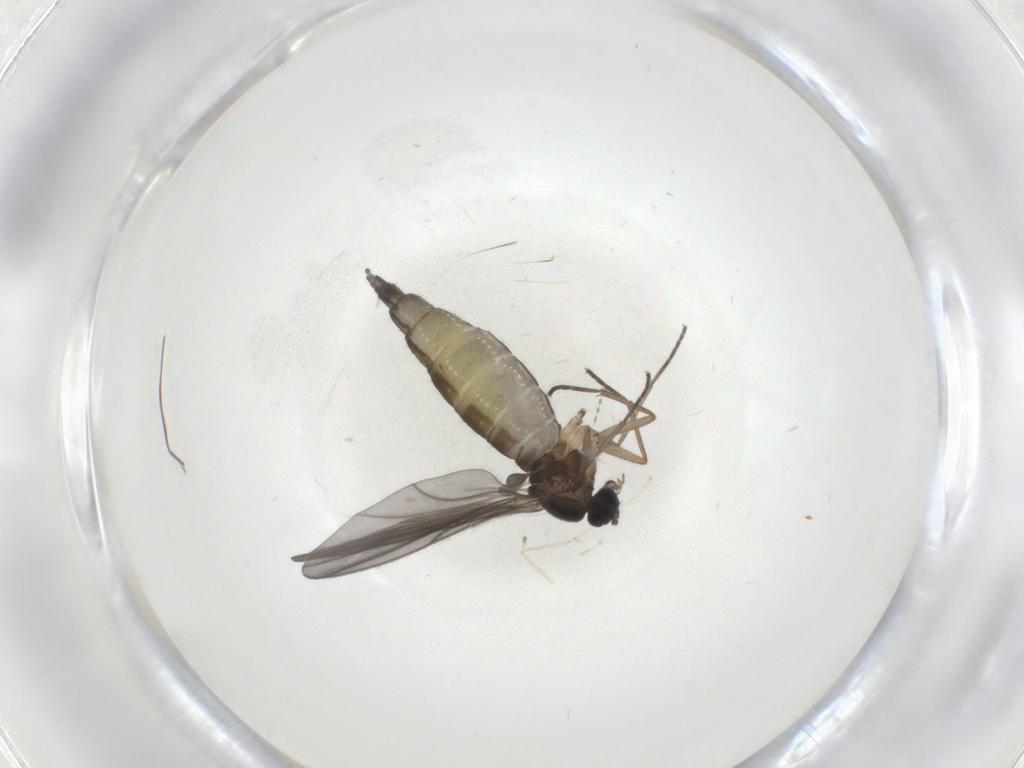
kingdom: Animalia
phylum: Arthropoda
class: Insecta
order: Diptera
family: Sciaridae
